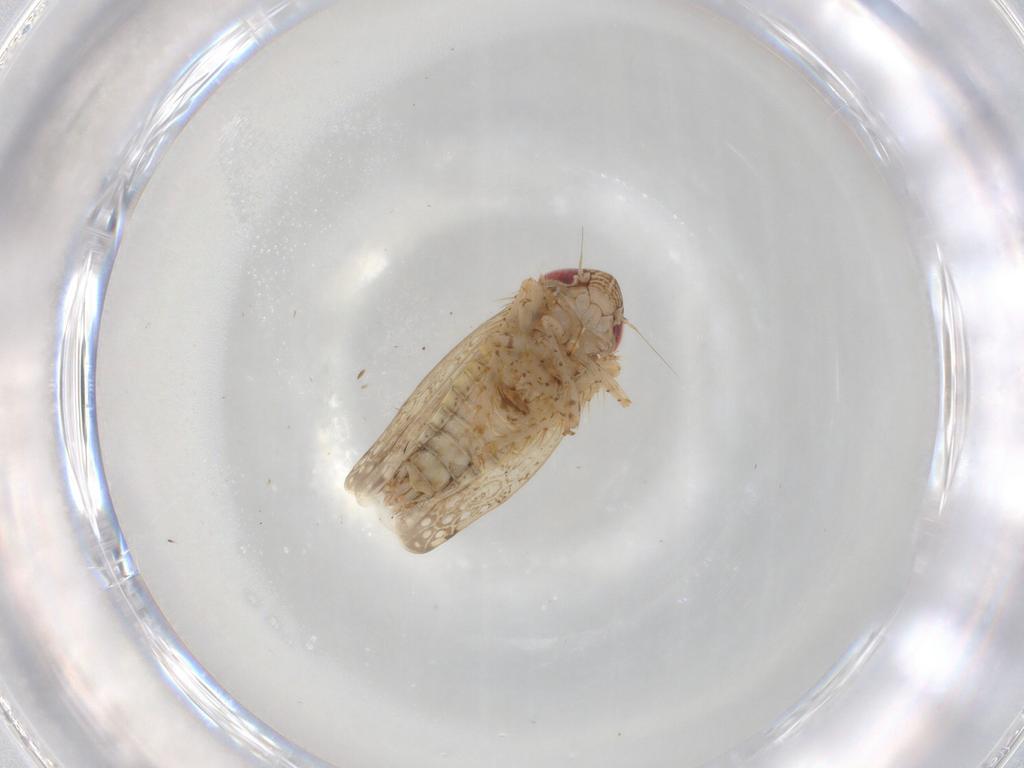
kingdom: Animalia
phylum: Arthropoda
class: Insecta
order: Hemiptera
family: Cicadellidae
